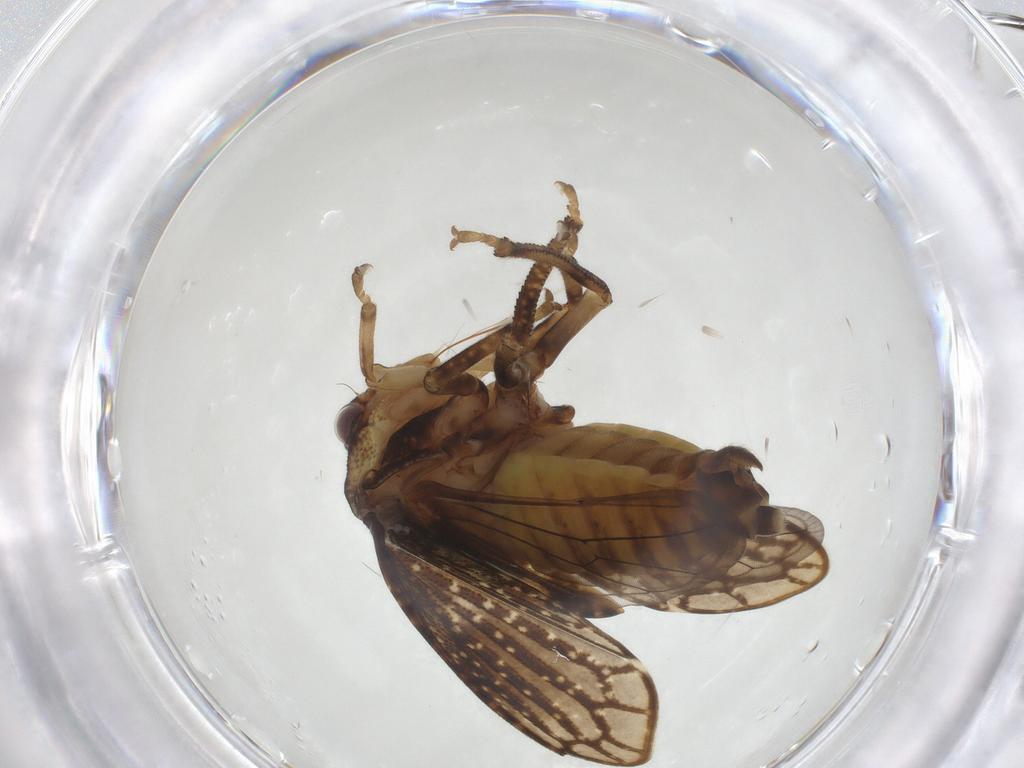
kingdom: Animalia
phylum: Arthropoda
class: Insecta
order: Hemiptera
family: Aetalionidae
